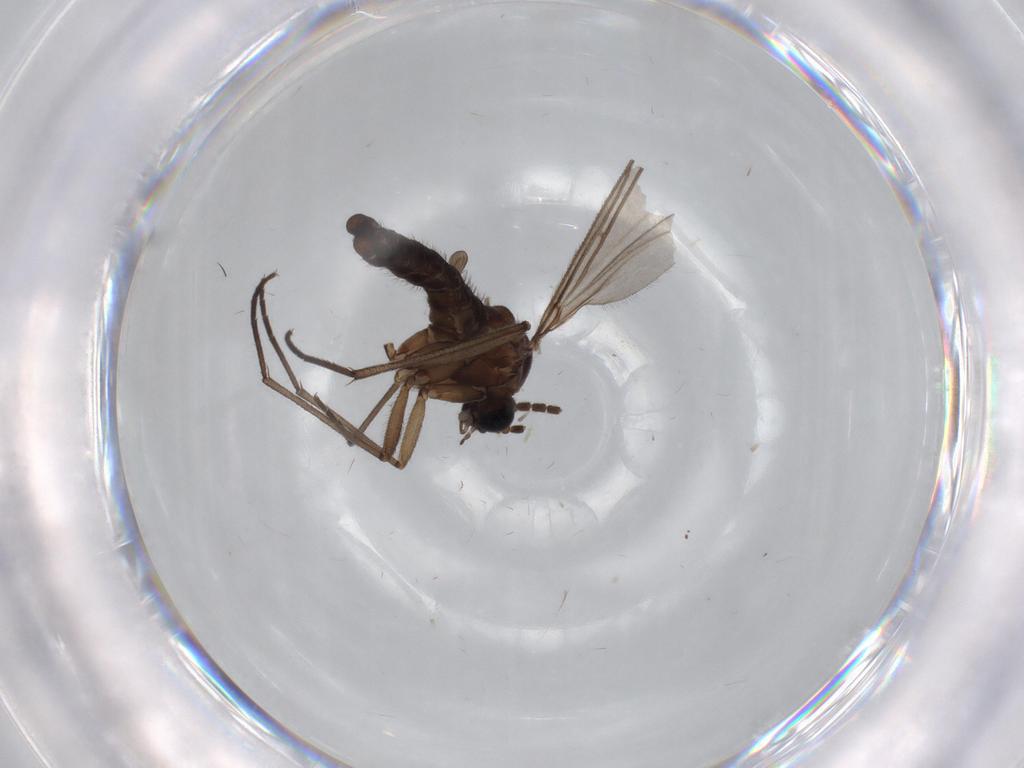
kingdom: Animalia
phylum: Arthropoda
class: Insecta
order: Diptera
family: Sciaridae
